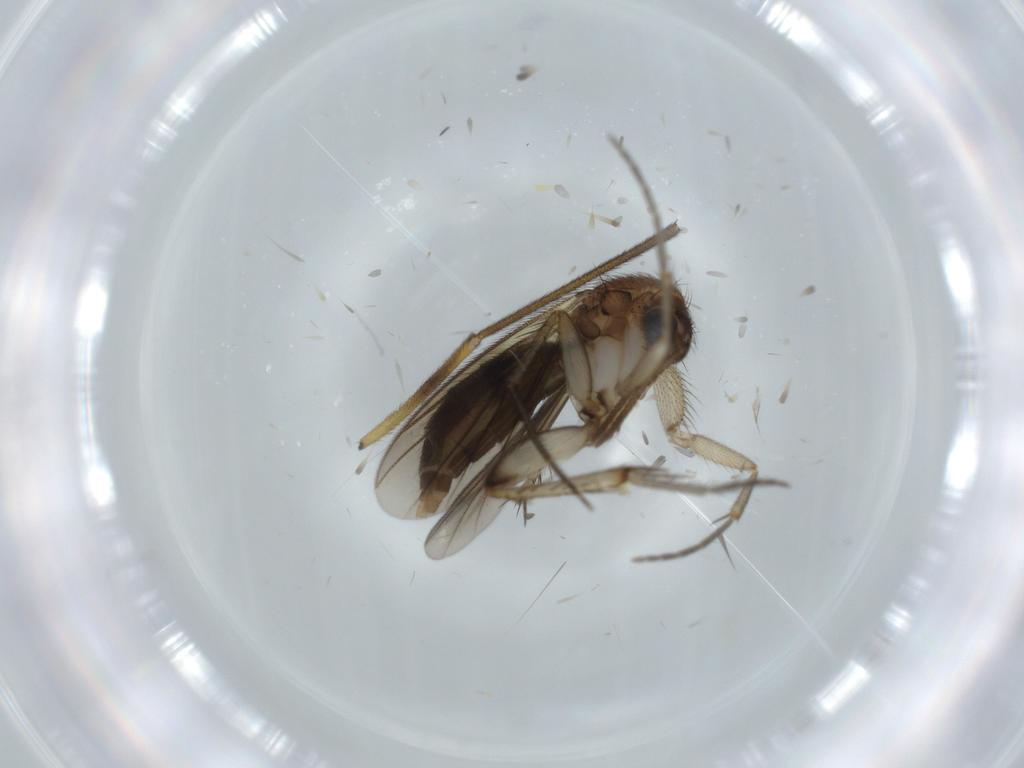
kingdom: Animalia
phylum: Arthropoda
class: Insecta
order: Diptera
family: Mycetophilidae
